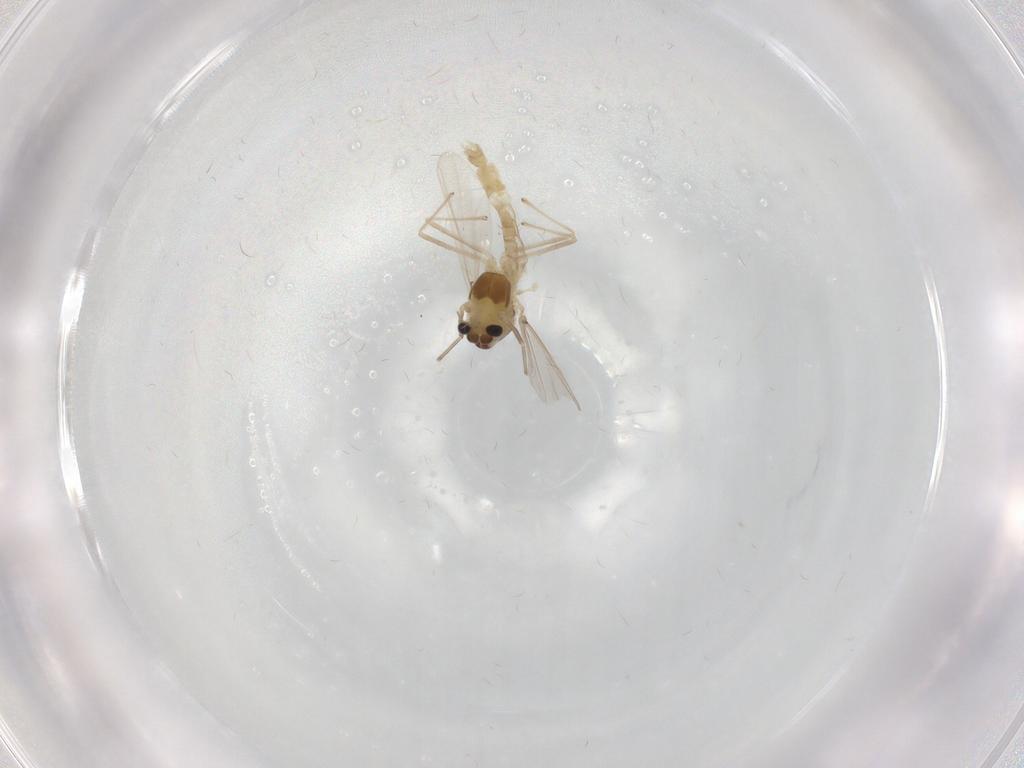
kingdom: Animalia
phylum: Arthropoda
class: Insecta
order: Diptera
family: Chironomidae
